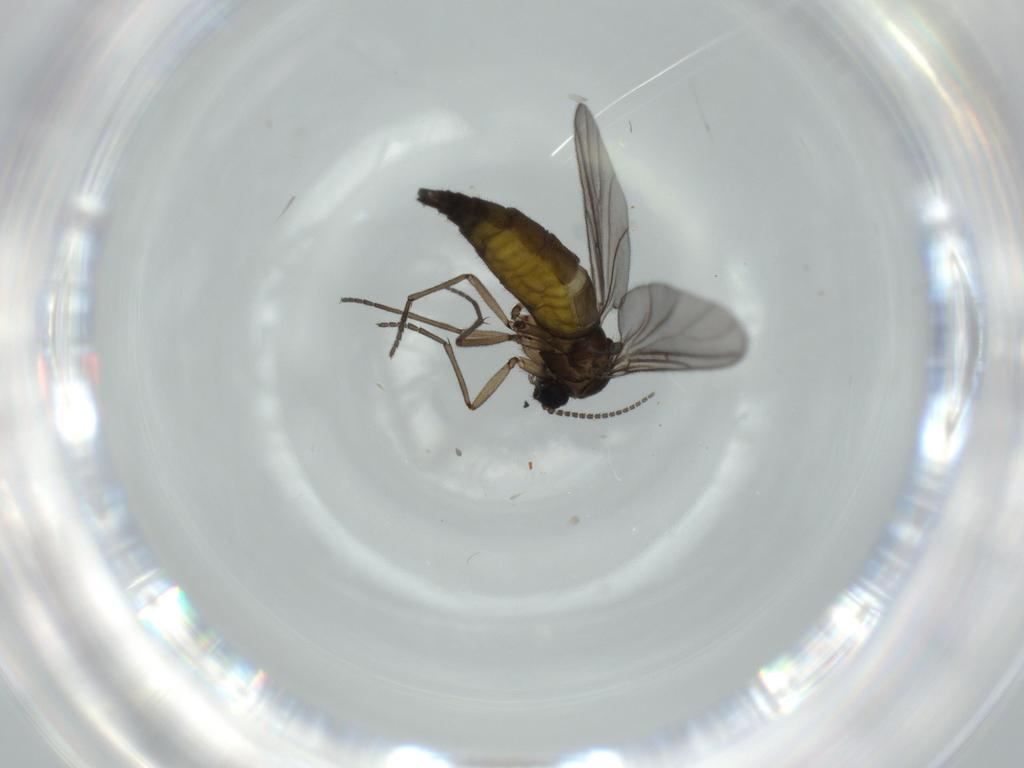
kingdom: Animalia
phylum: Arthropoda
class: Insecta
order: Diptera
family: Sciaridae
